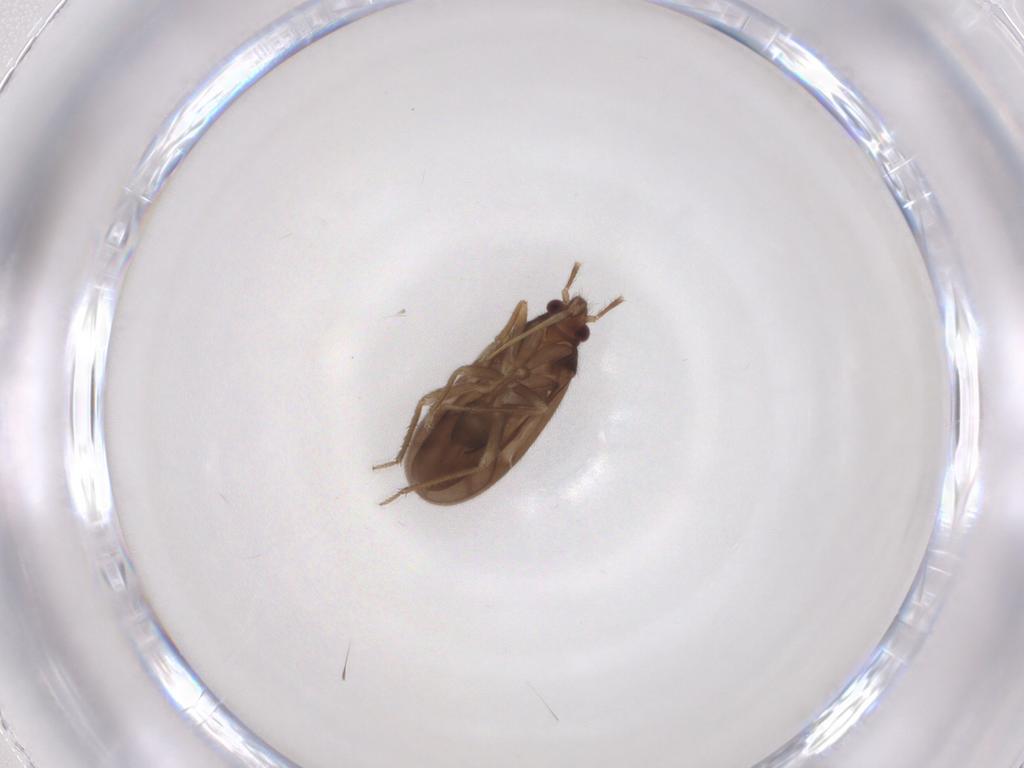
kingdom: Animalia
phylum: Arthropoda
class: Insecta
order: Hemiptera
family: Ceratocombidae
